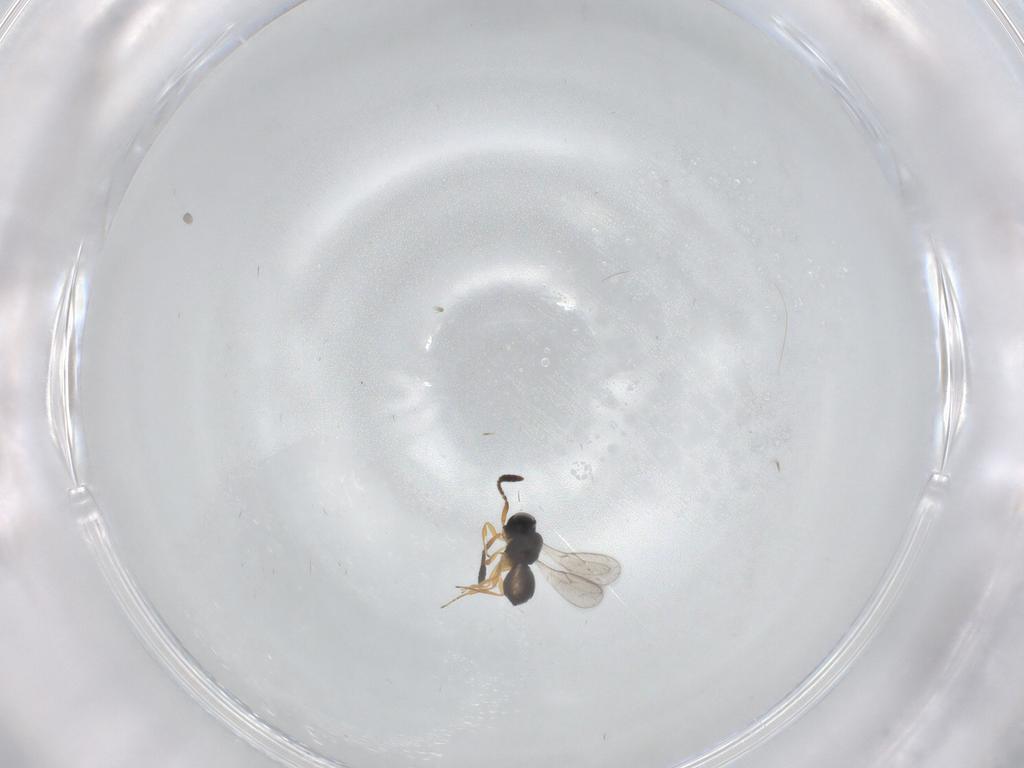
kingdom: Animalia
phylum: Arthropoda
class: Insecta
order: Hymenoptera
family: Scelionidae
